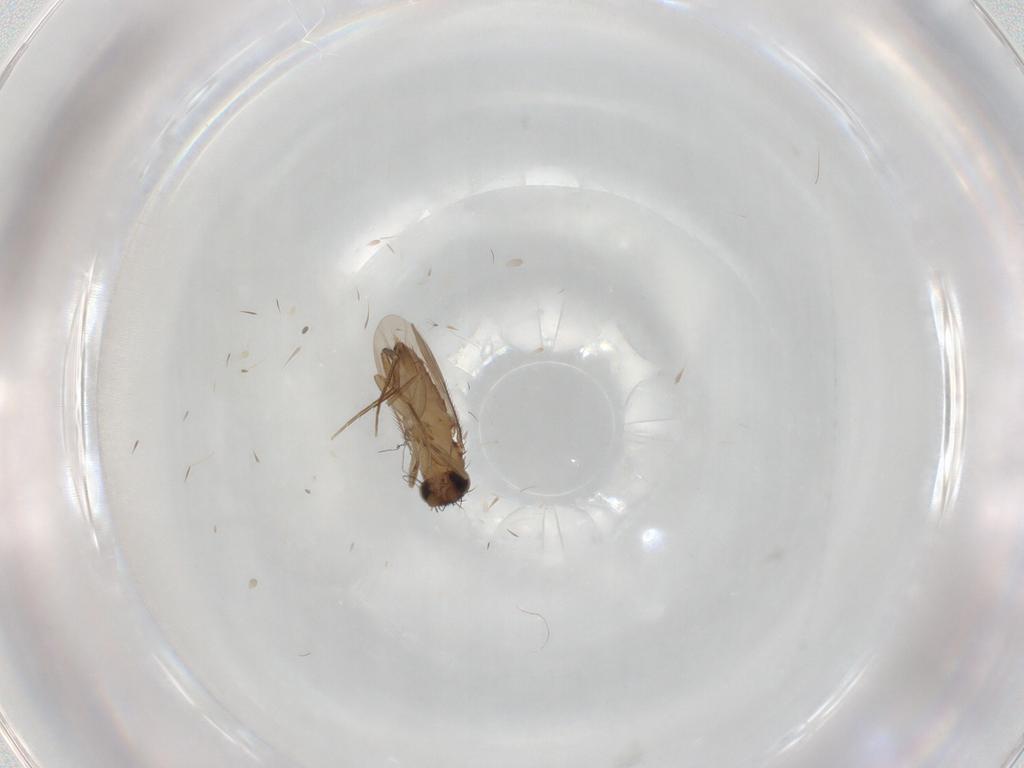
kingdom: Animalia
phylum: Arthropoda
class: Insecta
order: Diptera
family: Phoridae
